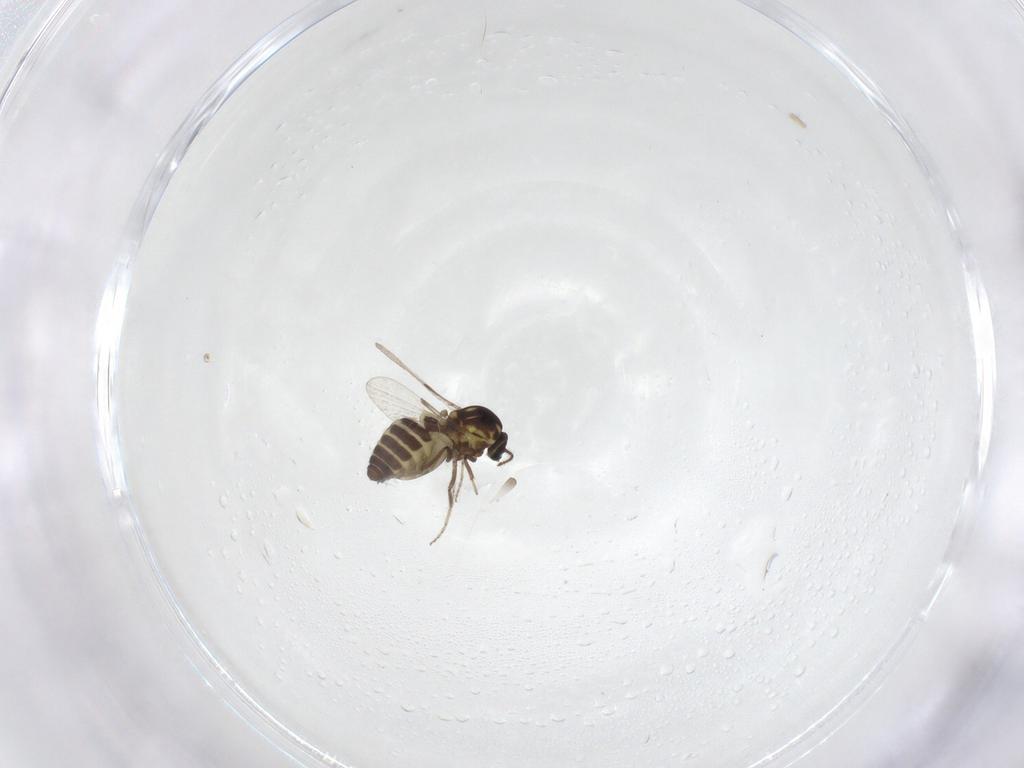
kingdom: Animalia
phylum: Arthropoda
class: Insecta
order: Diptera
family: Ceratopogonidae
